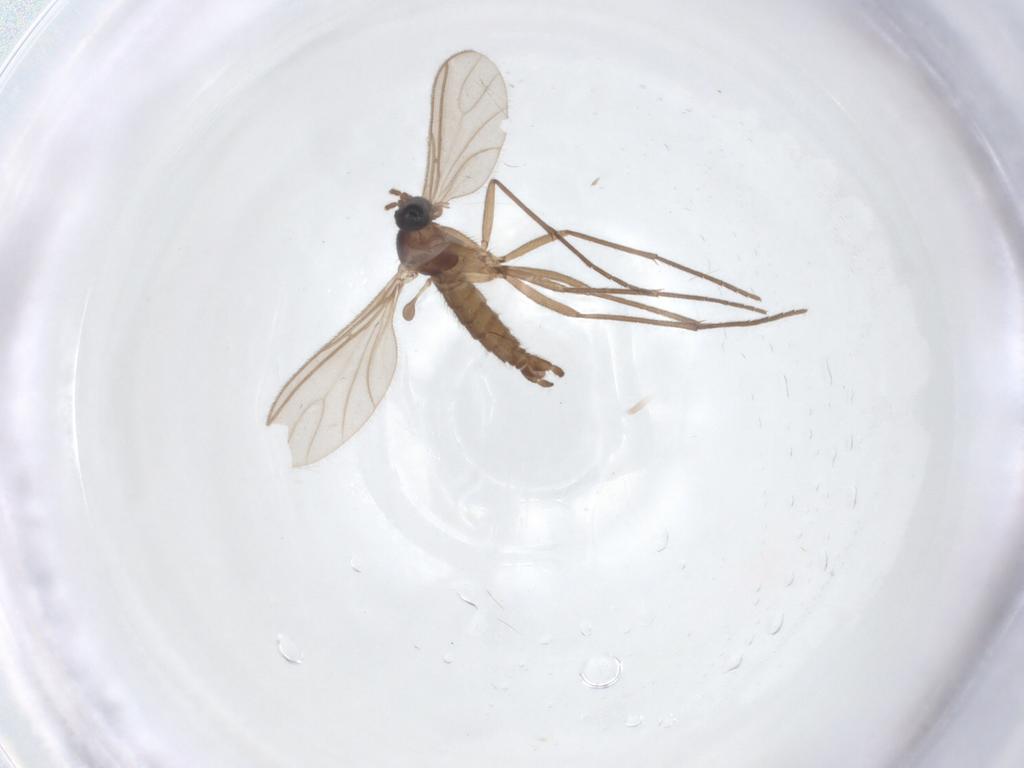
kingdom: Animalia
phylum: Arthropoda
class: Insecta
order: Diptera
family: Sciaridae
